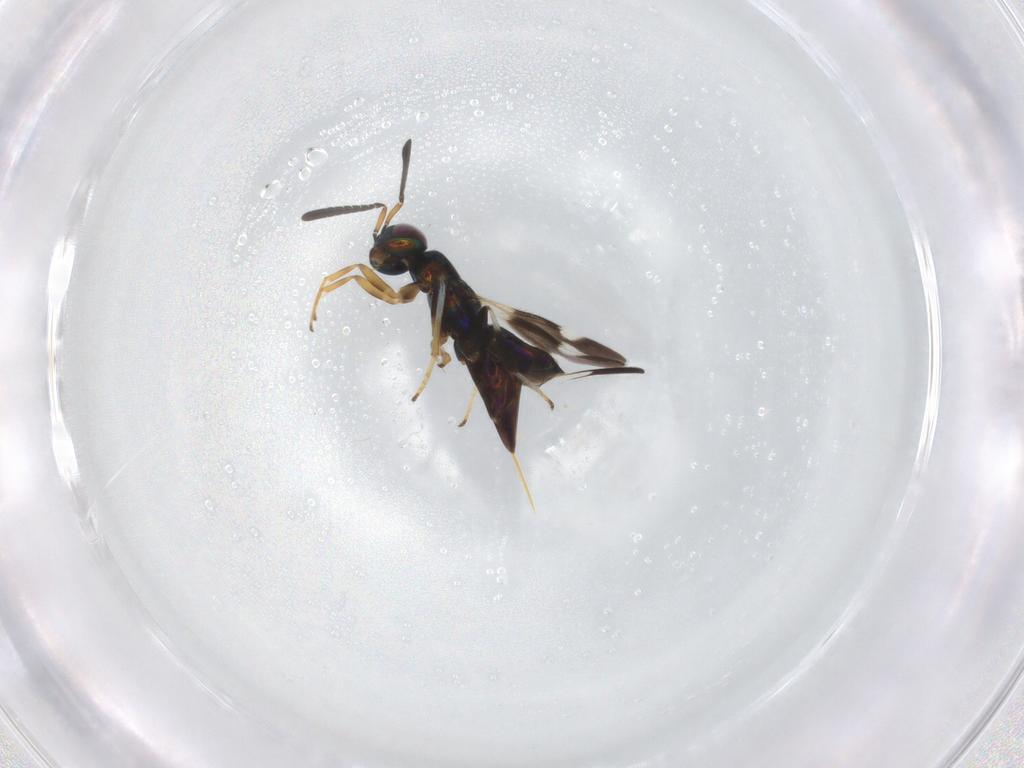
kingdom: Animalia
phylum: Arthropoda
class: Insecta
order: Hymenoptera
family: Encyrtidae
